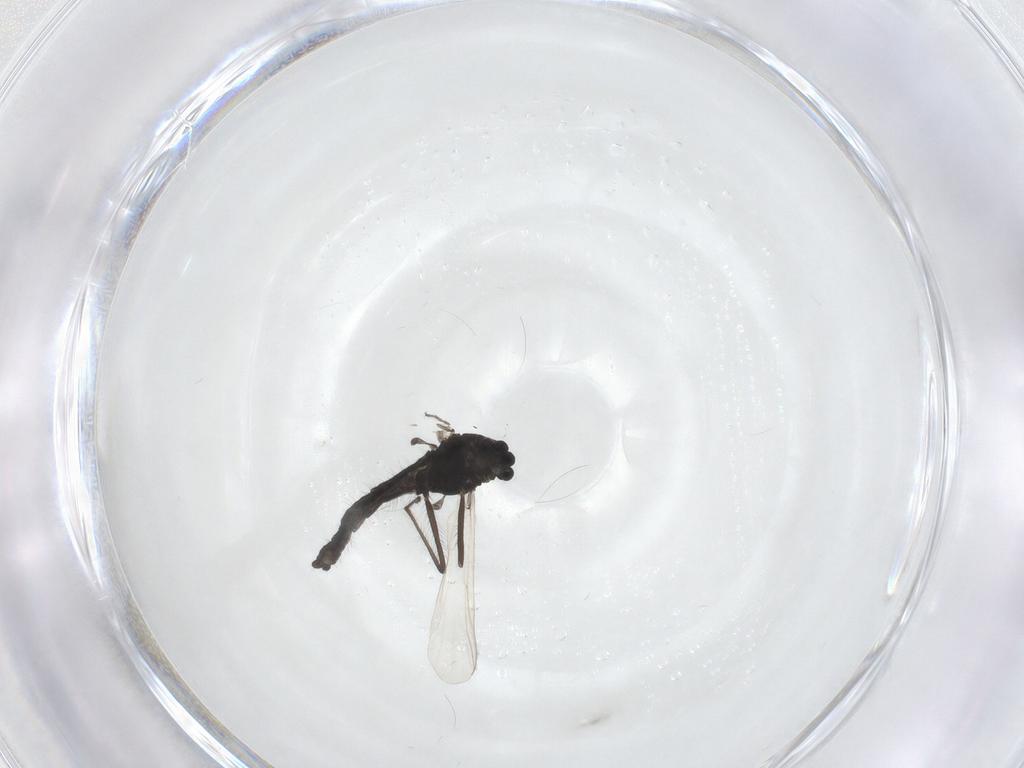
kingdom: Animalia
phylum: Arthropoda
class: Insecta
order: Diptera
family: Chironomidae
